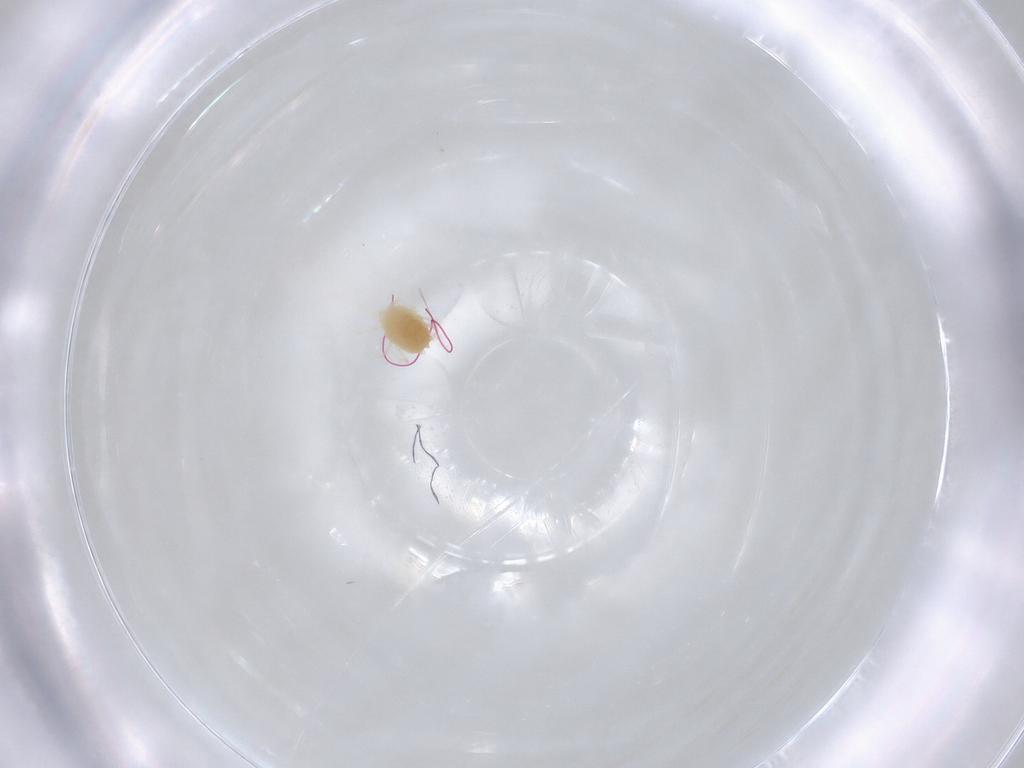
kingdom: Animalia
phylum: Arthropoda
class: Arachnida
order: Trombidiformes
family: Tetranychidae
